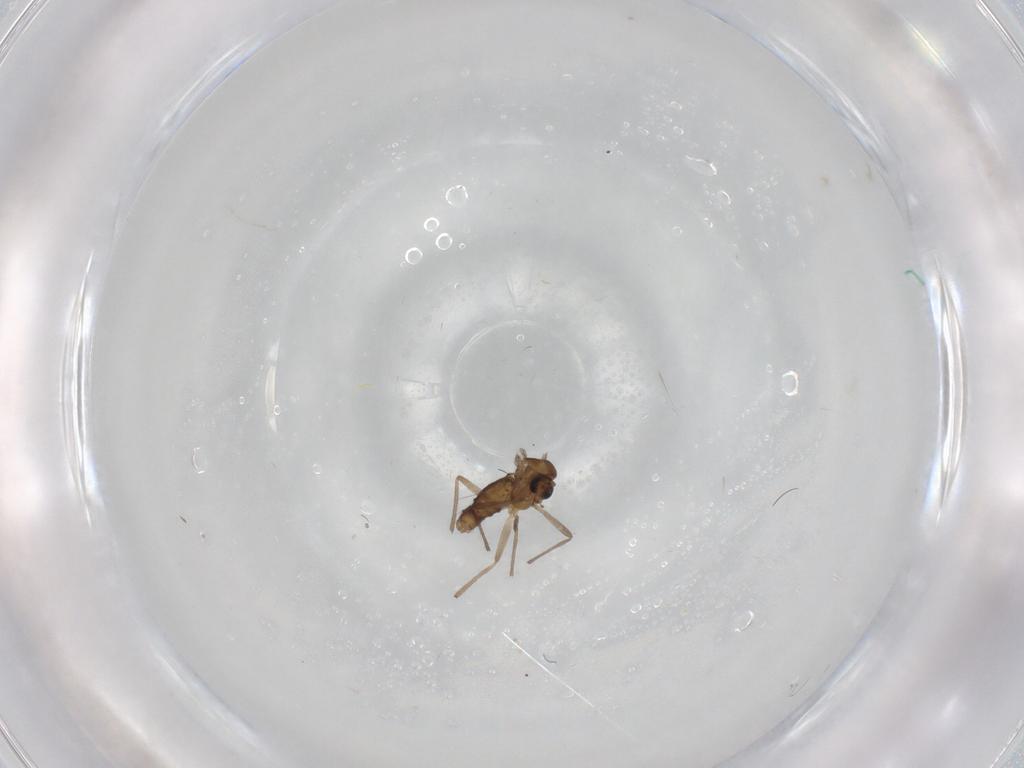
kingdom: Animalia
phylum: Arthropoda
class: Insecta
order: Diptera
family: Chironomidae
